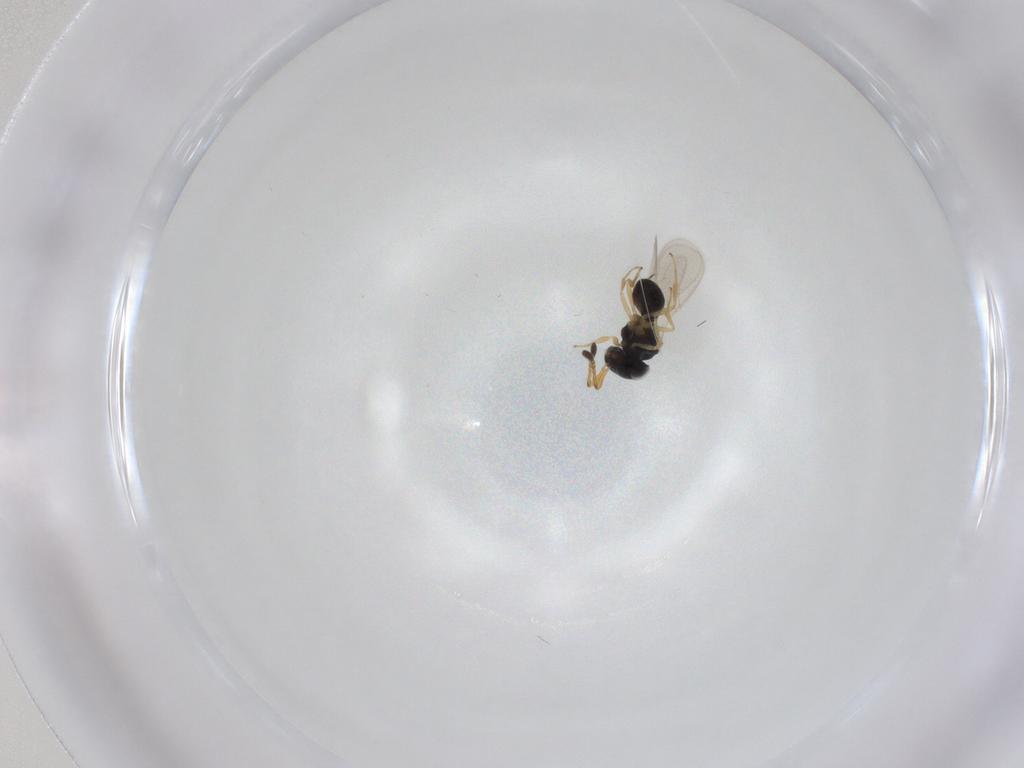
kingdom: Animalia
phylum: Arthropoda
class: Insecta
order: Hymenoptera
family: Scelionidae
